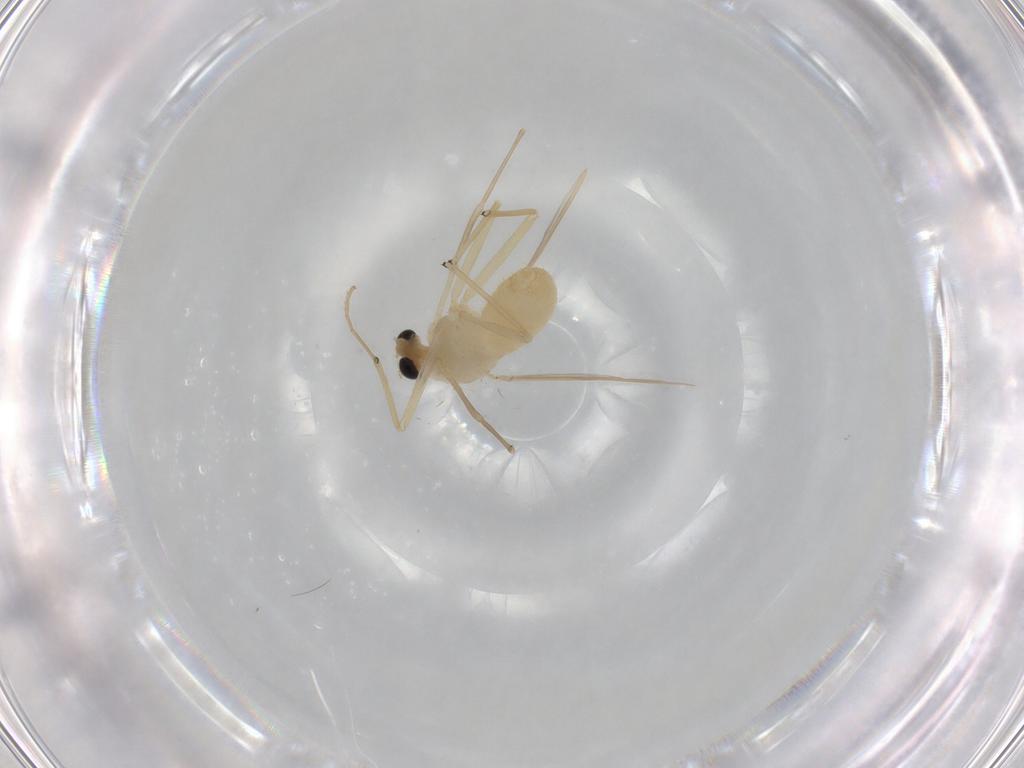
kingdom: Animalia
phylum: Arthropoda
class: Insecta
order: Diptera
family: Chironomidae
